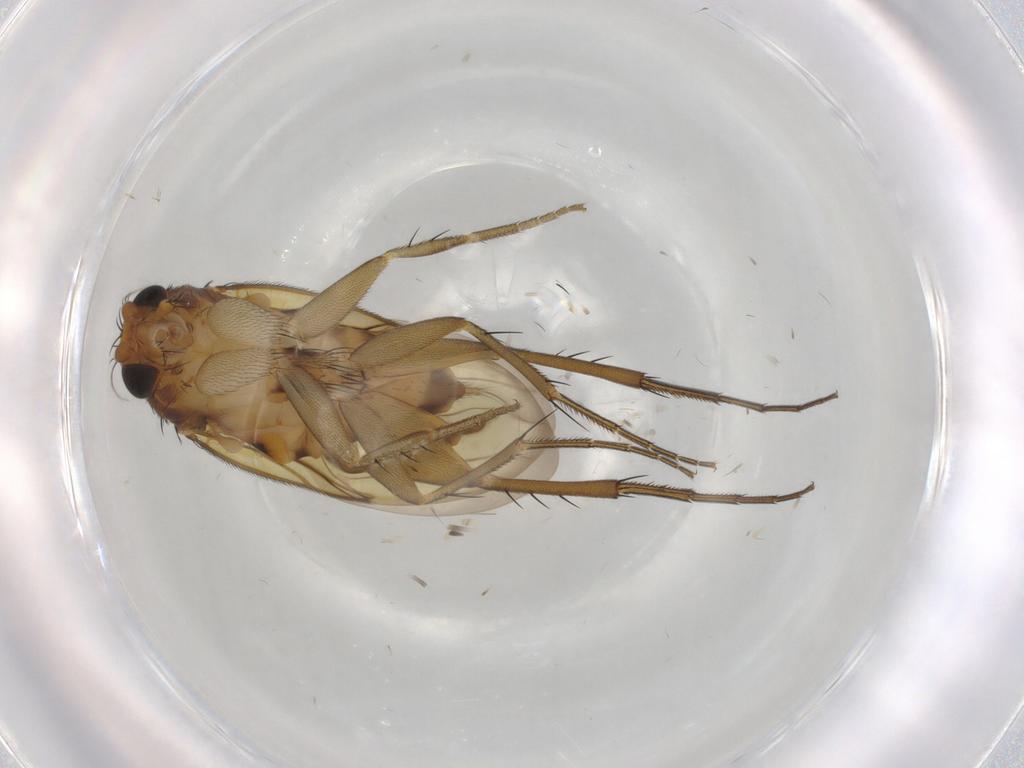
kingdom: Animalia
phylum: Arthropoda
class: Insecta
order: Diptera
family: Phoridae
